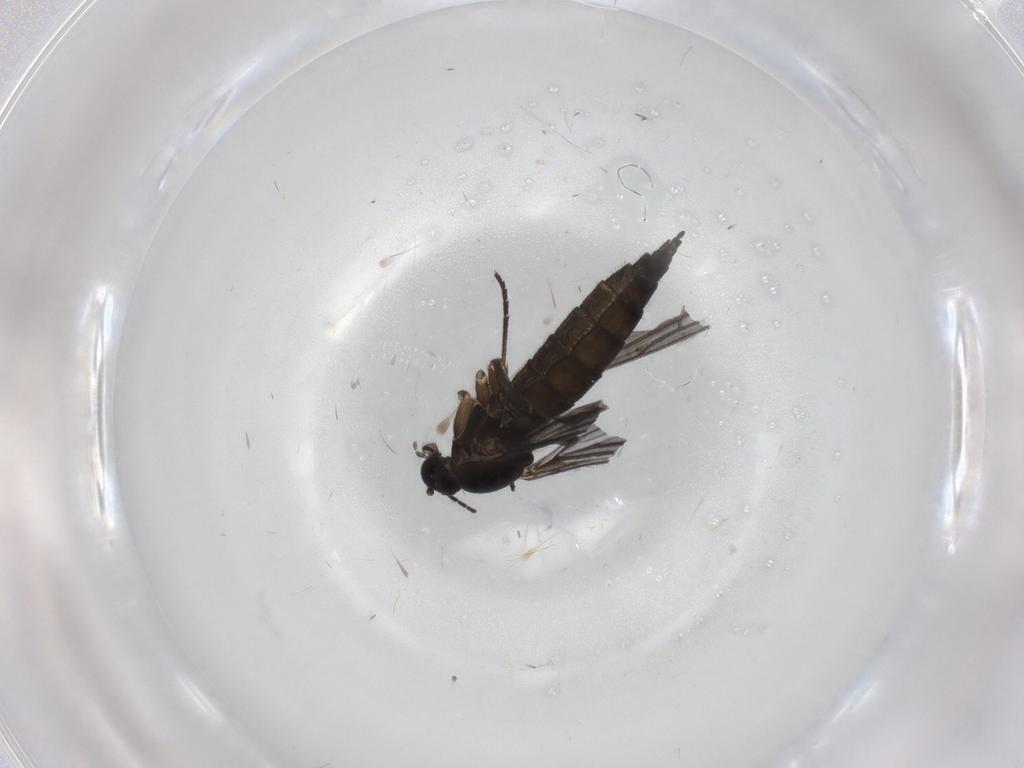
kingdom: Animalia
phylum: Arthropoda
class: Insecta
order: Diptera
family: Sciaridae
